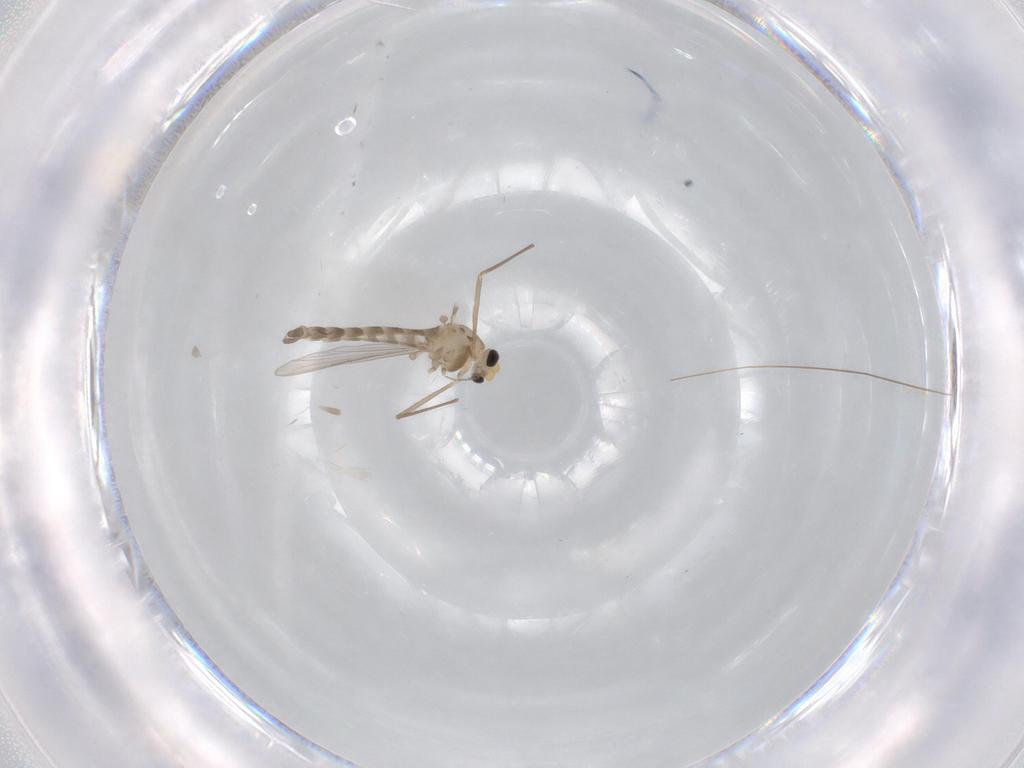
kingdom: Animalia
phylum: Arthropoda
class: Insecta
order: Diptera
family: Chironomidae
